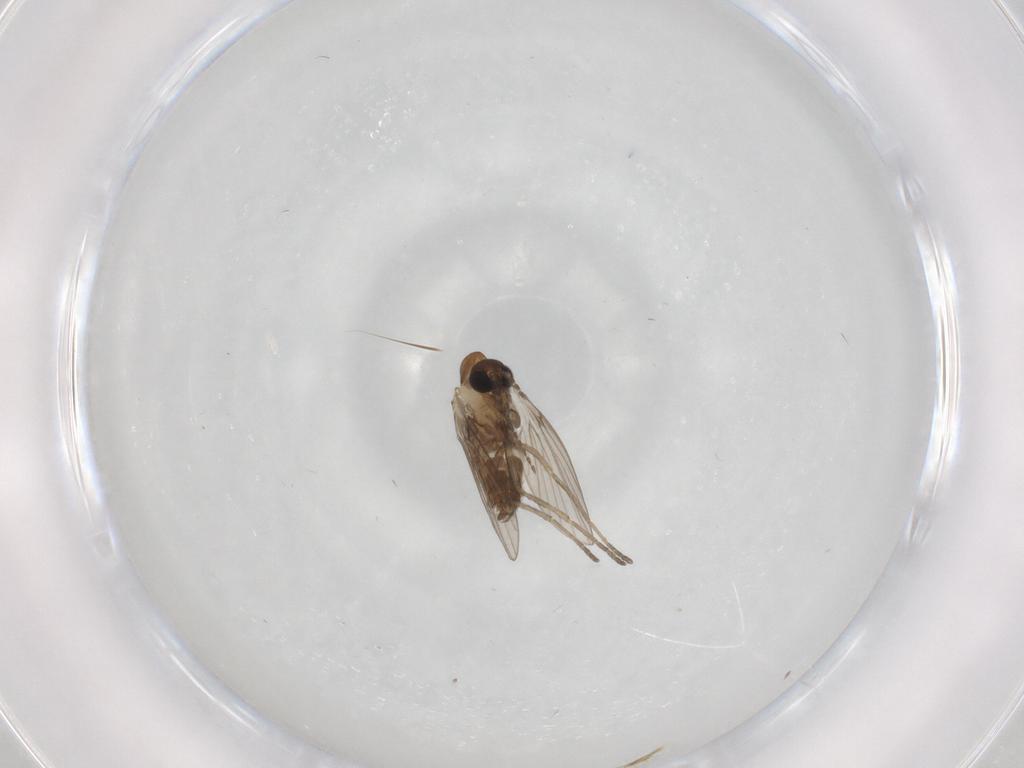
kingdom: Animalia
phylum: Arthropoda
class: Insecta
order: Diptera
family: Psychodidae
